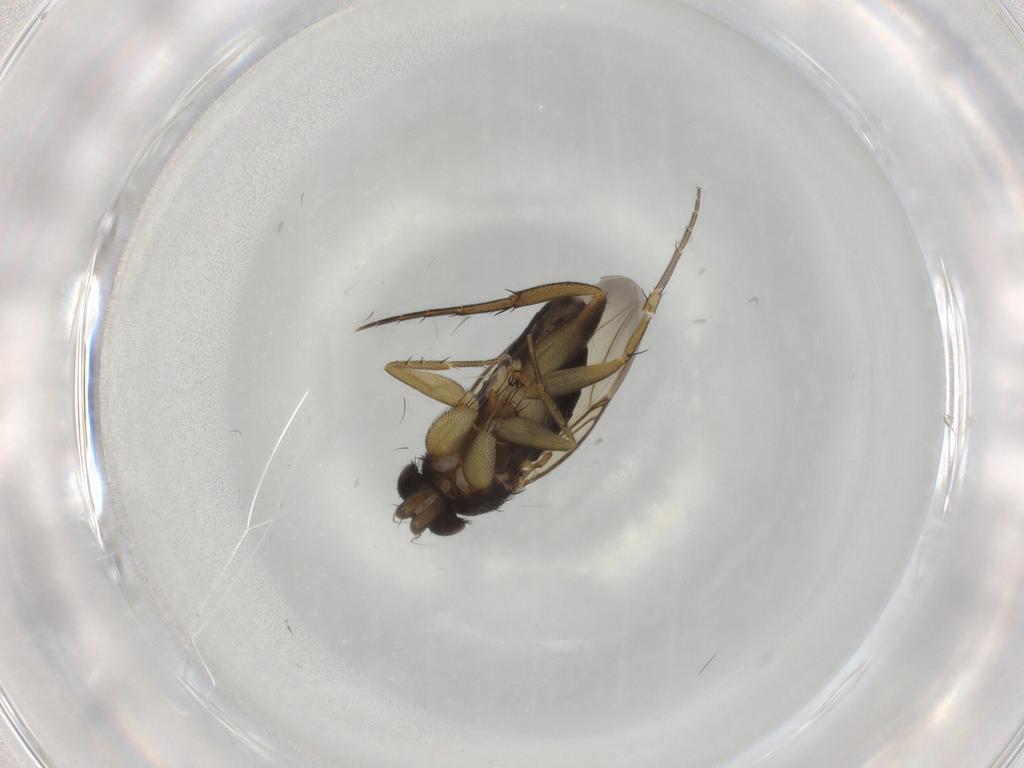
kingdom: Animalia
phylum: Arthropoda
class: Insecta
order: Diptera
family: Phoridae
